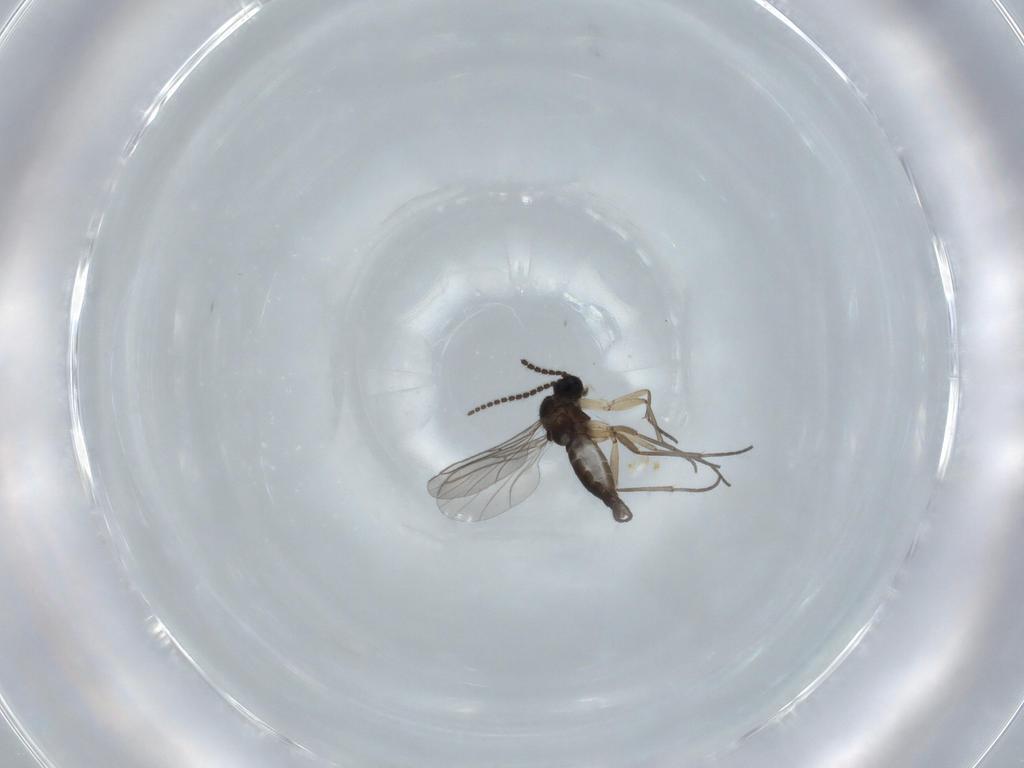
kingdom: Animalia
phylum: Arthropoda
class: Insecta
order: Diptera
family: Sciaridae
